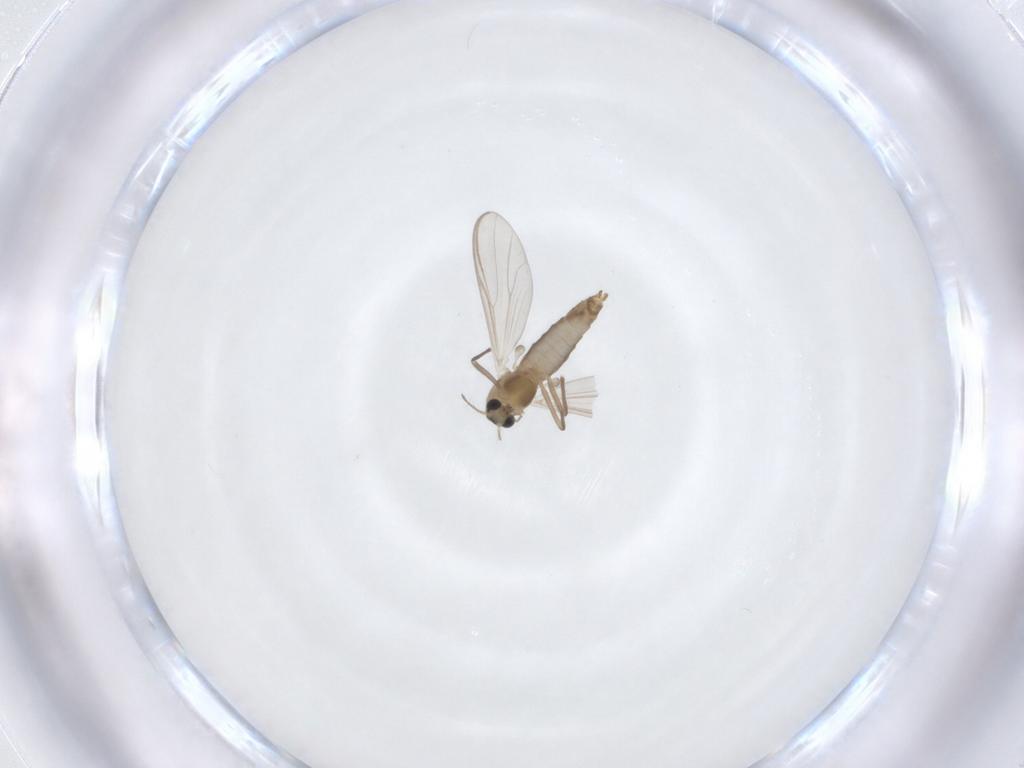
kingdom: Animalia
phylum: Arthropoda
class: Insecta
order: Diptera
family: Chironomidae
